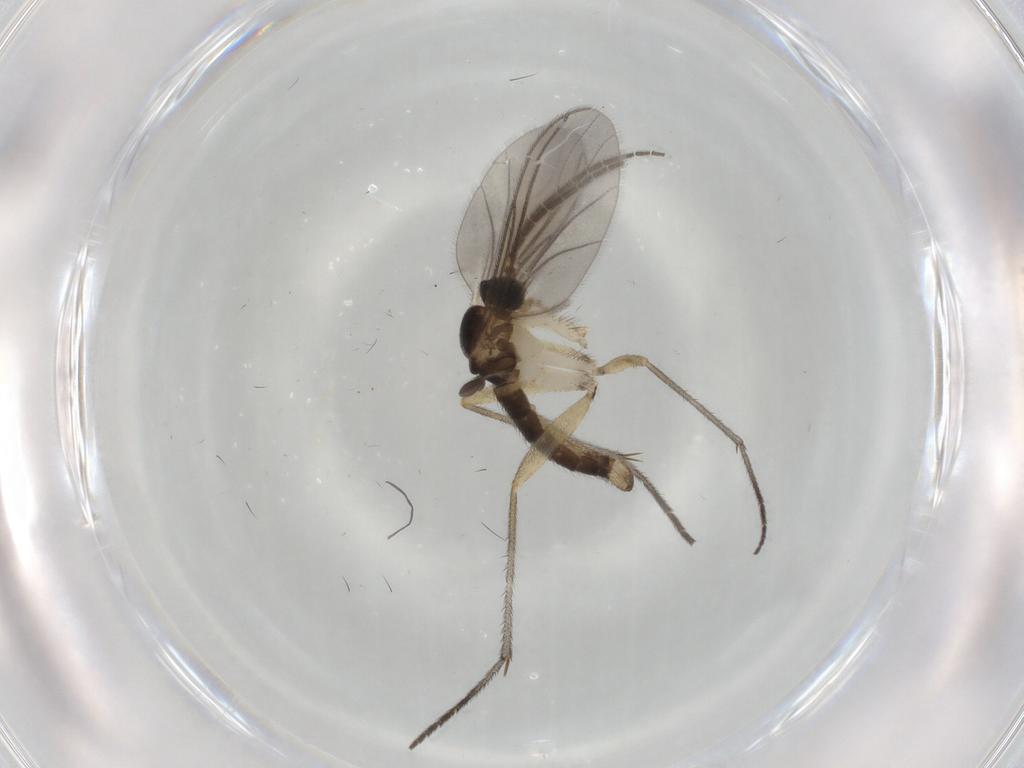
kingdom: Animalia
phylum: Arthropoda
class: Insecta
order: Diptera
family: Sciaridae
